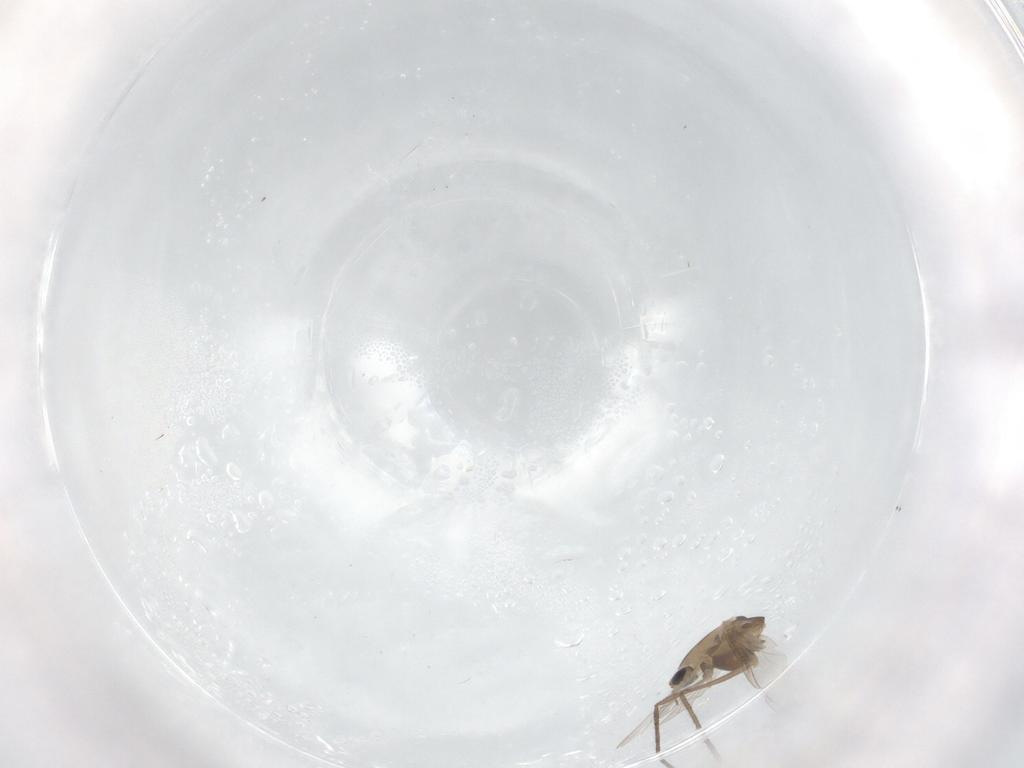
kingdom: Animalia
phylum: Arthropoda
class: Insecta
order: Diptera
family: Chironomidae
